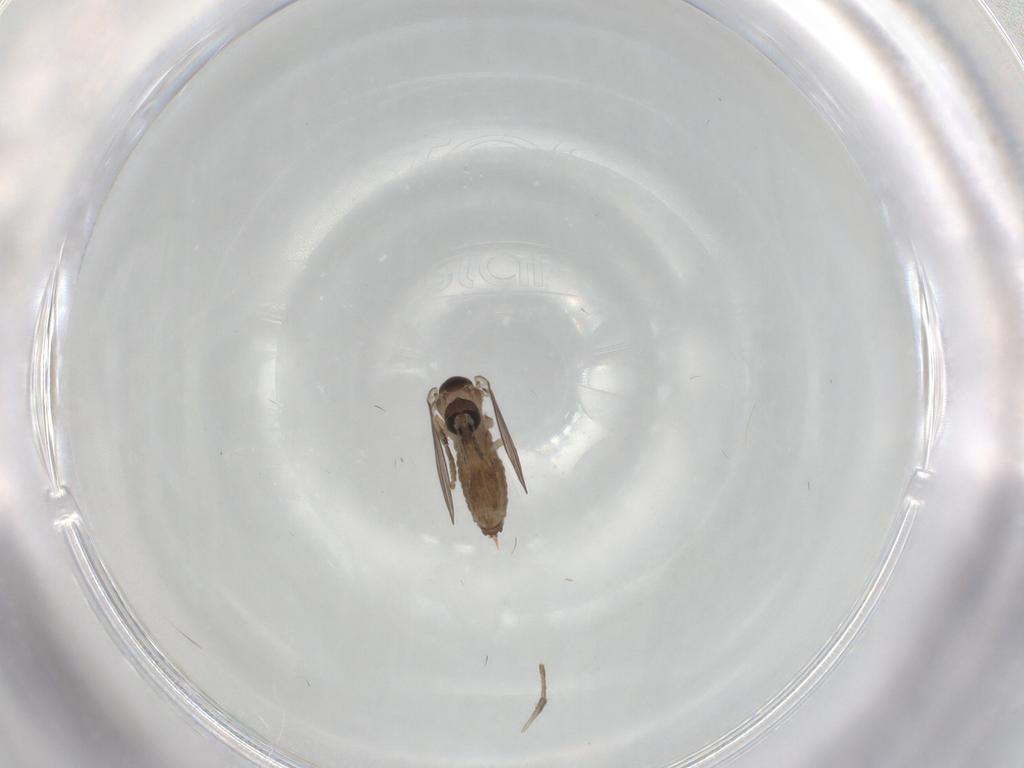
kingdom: Animalia
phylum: Arthropoda
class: Insecta
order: Diptera
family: Psychodidae
